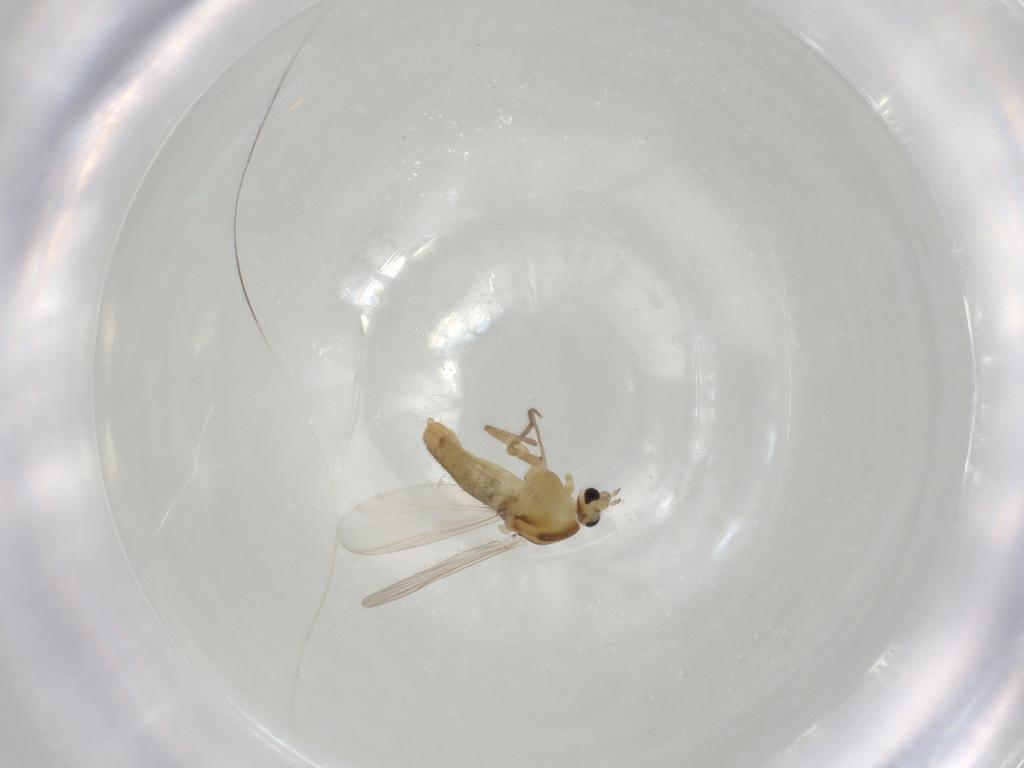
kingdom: Animalia
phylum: Arthropoda
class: Insecta
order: Diptera
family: Chironomidae
